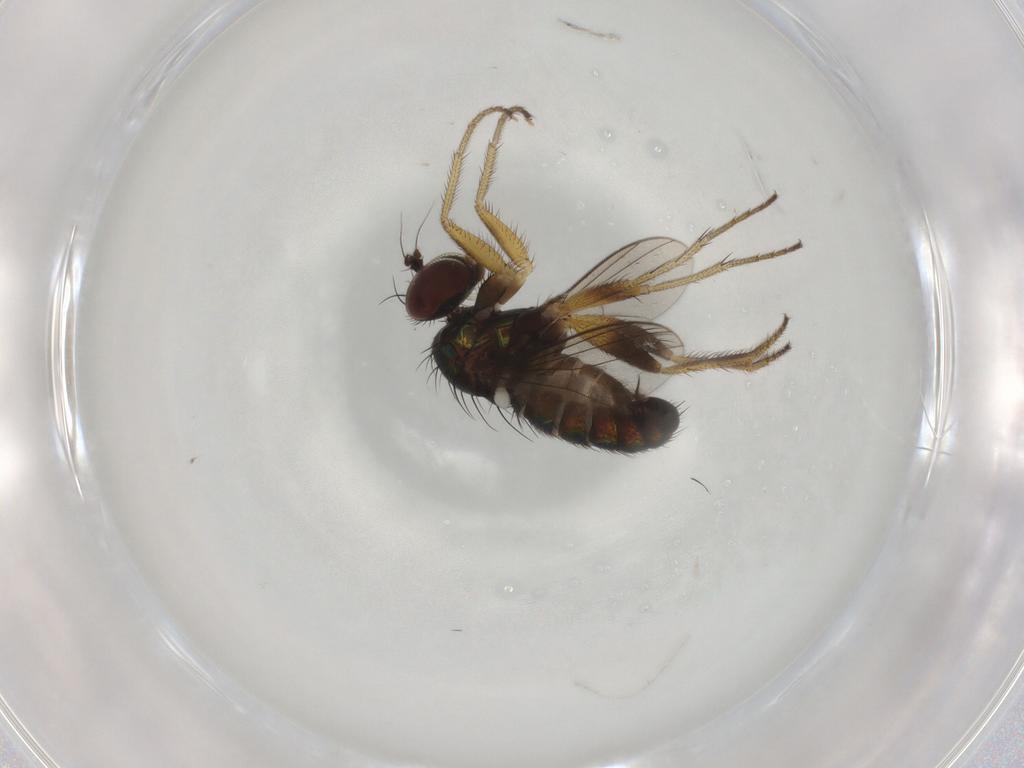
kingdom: Animalia
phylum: Arthropoda
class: Insecta
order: Diptera
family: Dolichopodidae
